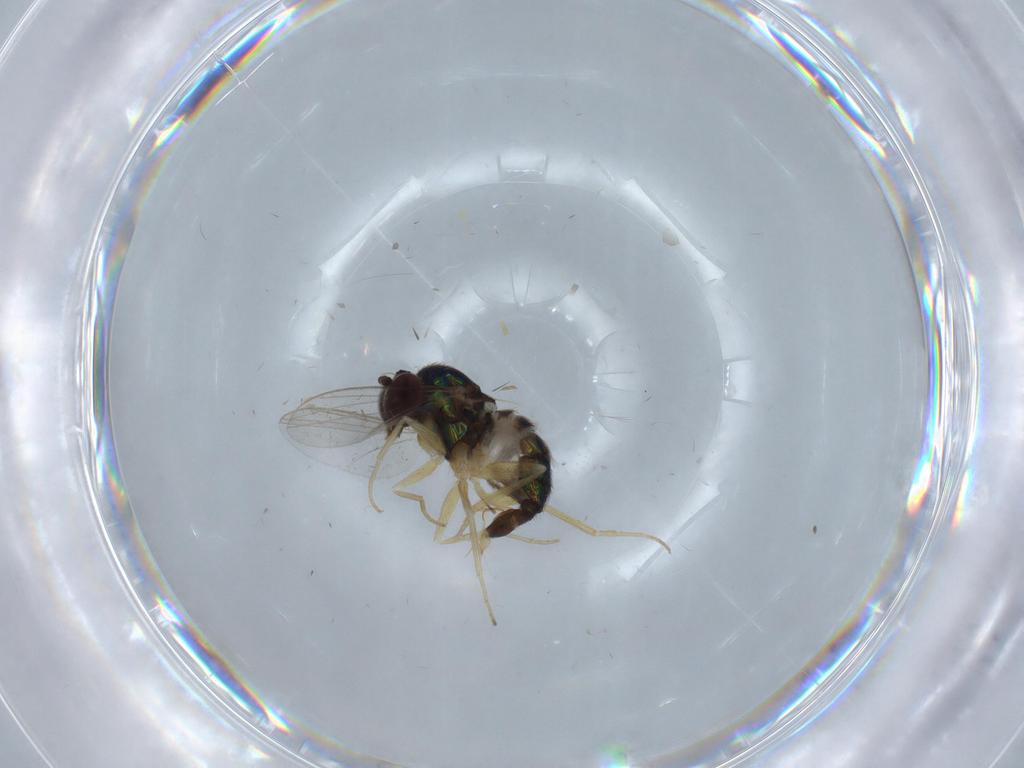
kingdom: Animalia
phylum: Arthropoda
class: Insecta
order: Diptera
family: Dolichopodidae
